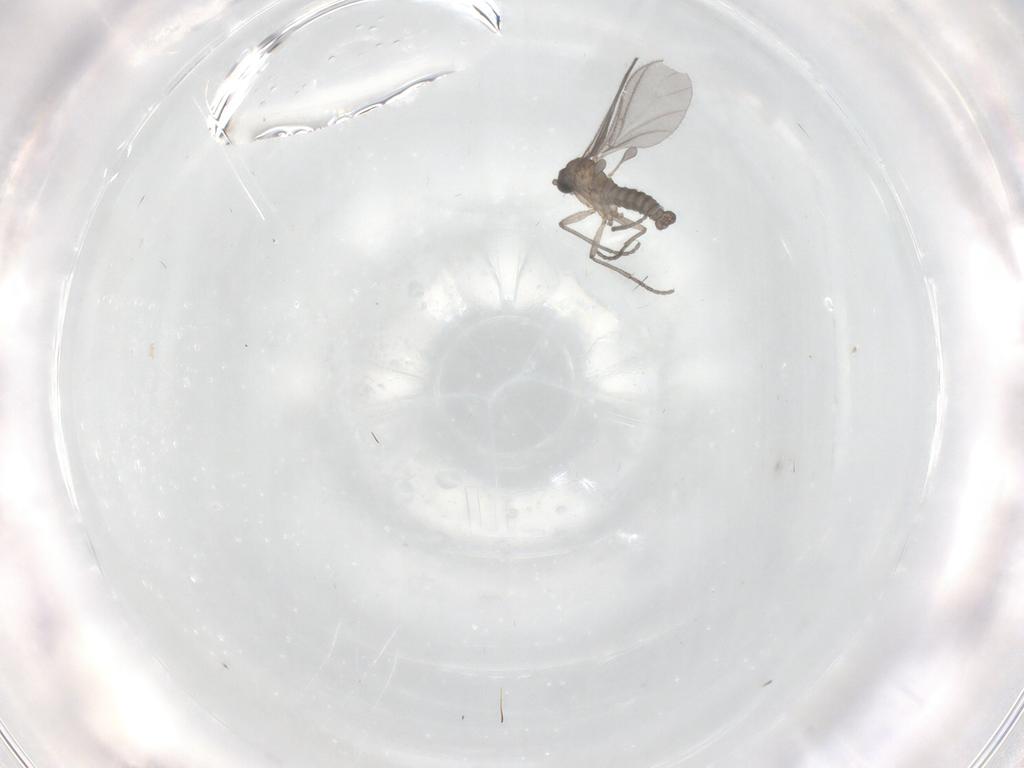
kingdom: Animalia
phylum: Arthropoda
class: Insecta
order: Diptera
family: Sciaridae
